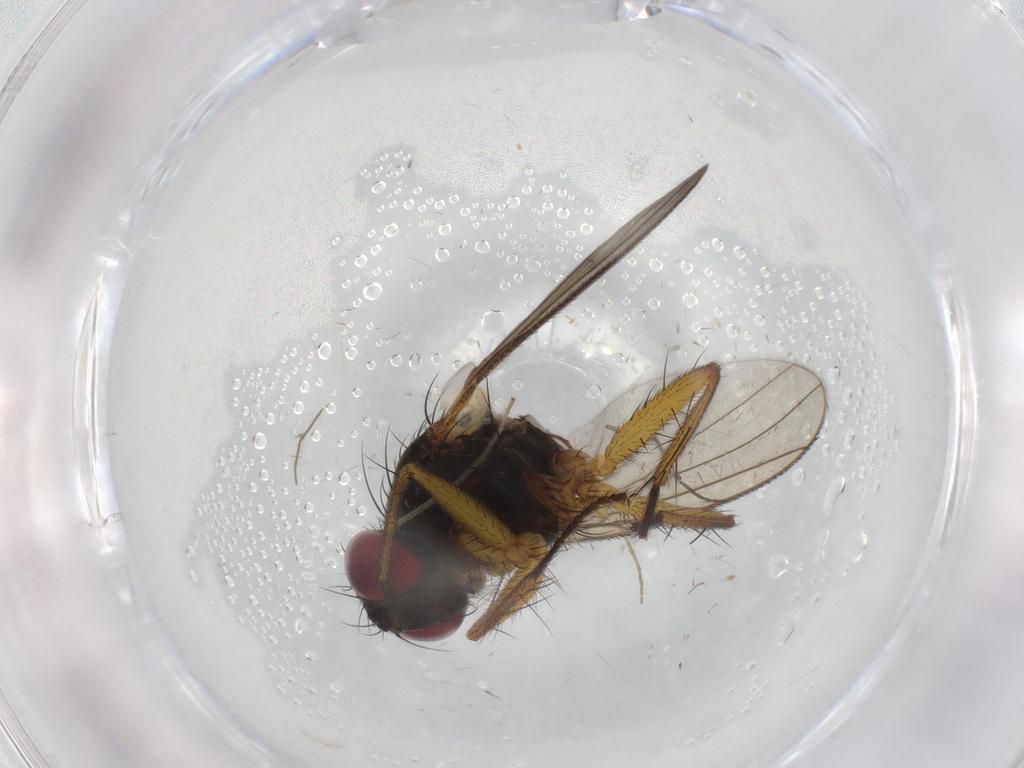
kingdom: Animalia
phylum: Arthropoda
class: Insecta
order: Diptera
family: Muscidae
